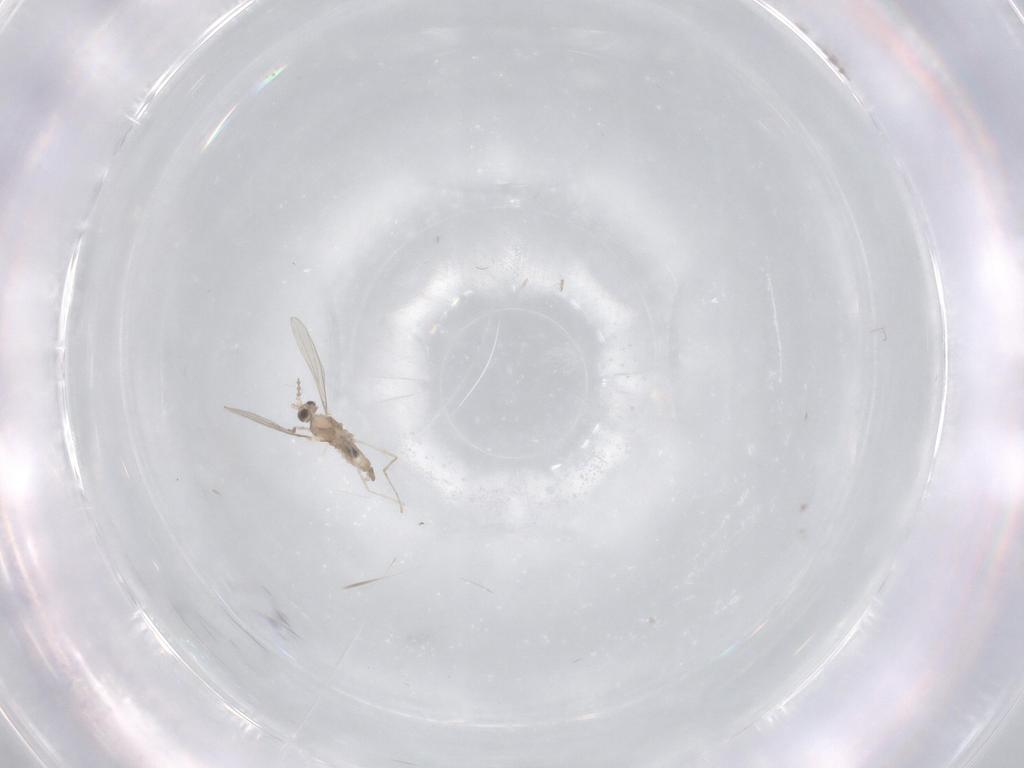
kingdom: Animalia
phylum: Arthropoda
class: Insecta
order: Diptera
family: Cecidomyiidae
